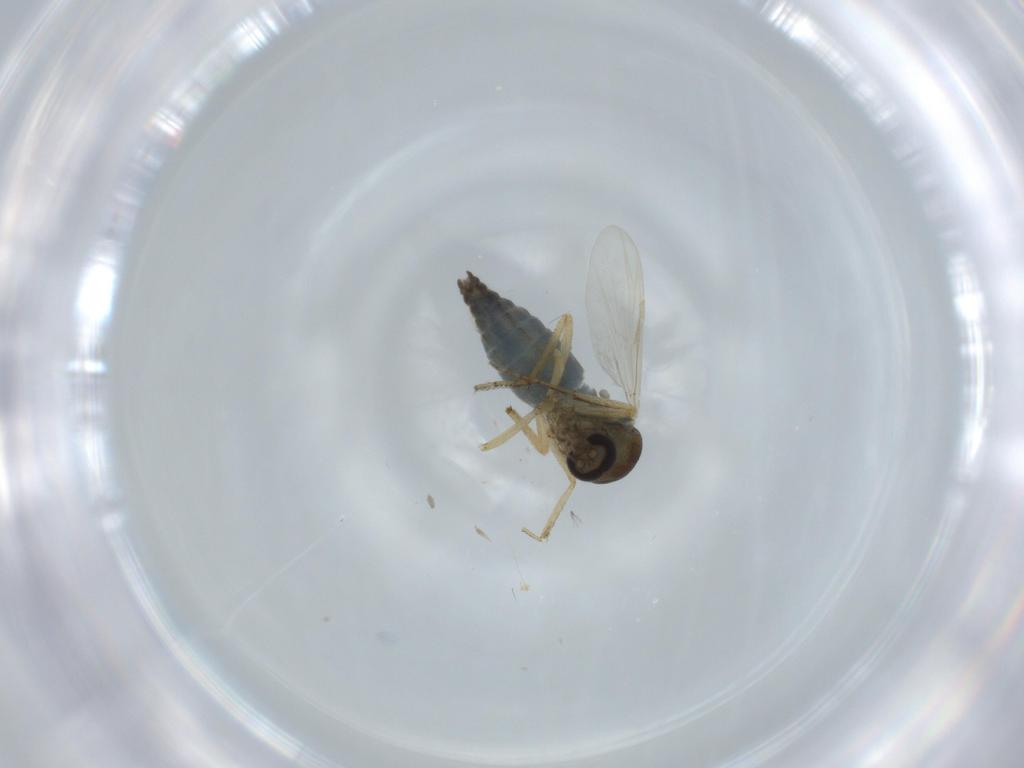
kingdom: Animalia
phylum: Arthropoda
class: Insecta
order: Diptera
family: Ceratopogonidae
